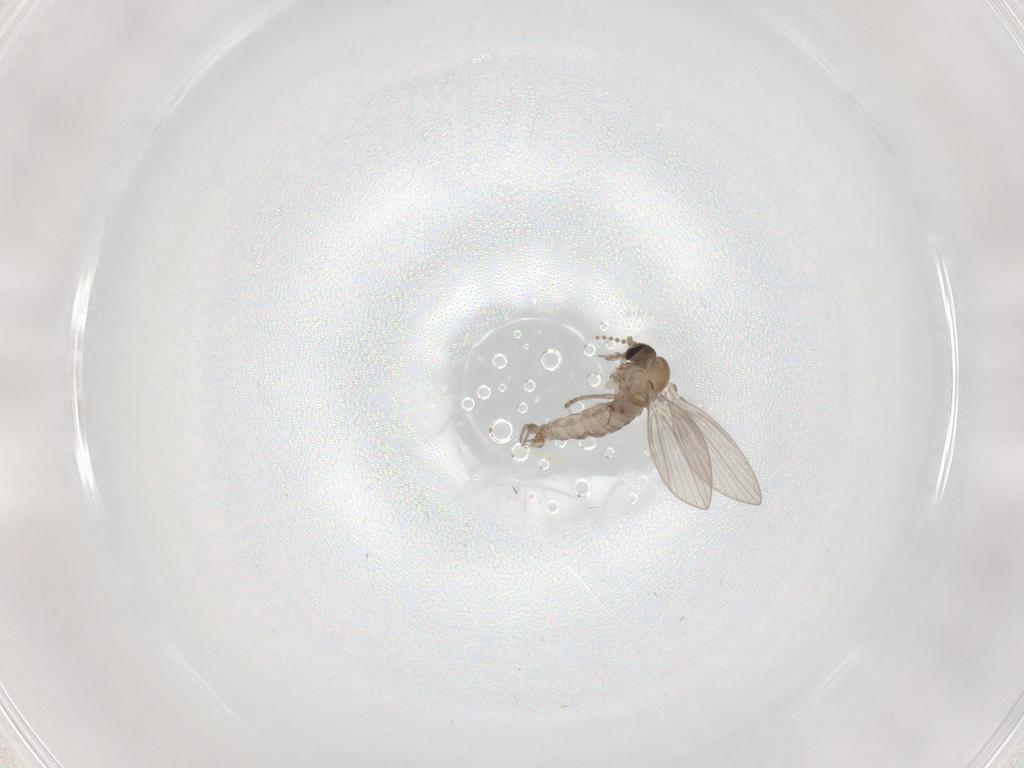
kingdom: Animalia
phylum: Arthropoda
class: Insecta
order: Diptera
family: Psychodidae
